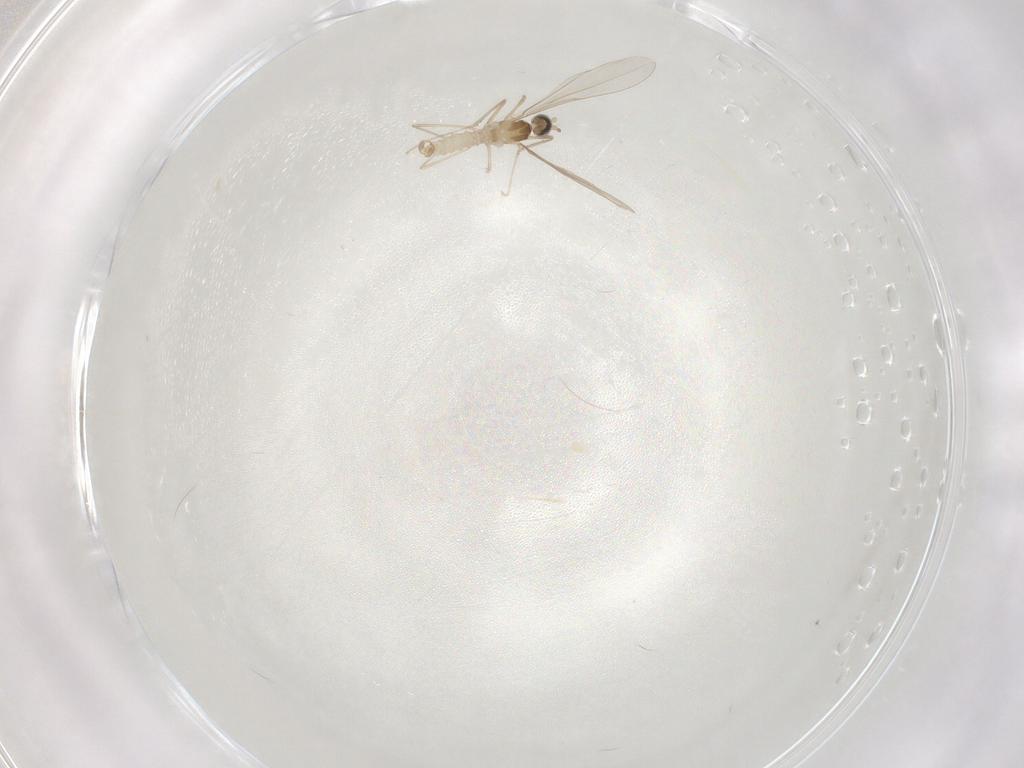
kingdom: Animalia
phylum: Arthropoda
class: Insecta
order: Diptera
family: Cecidomyiidae
